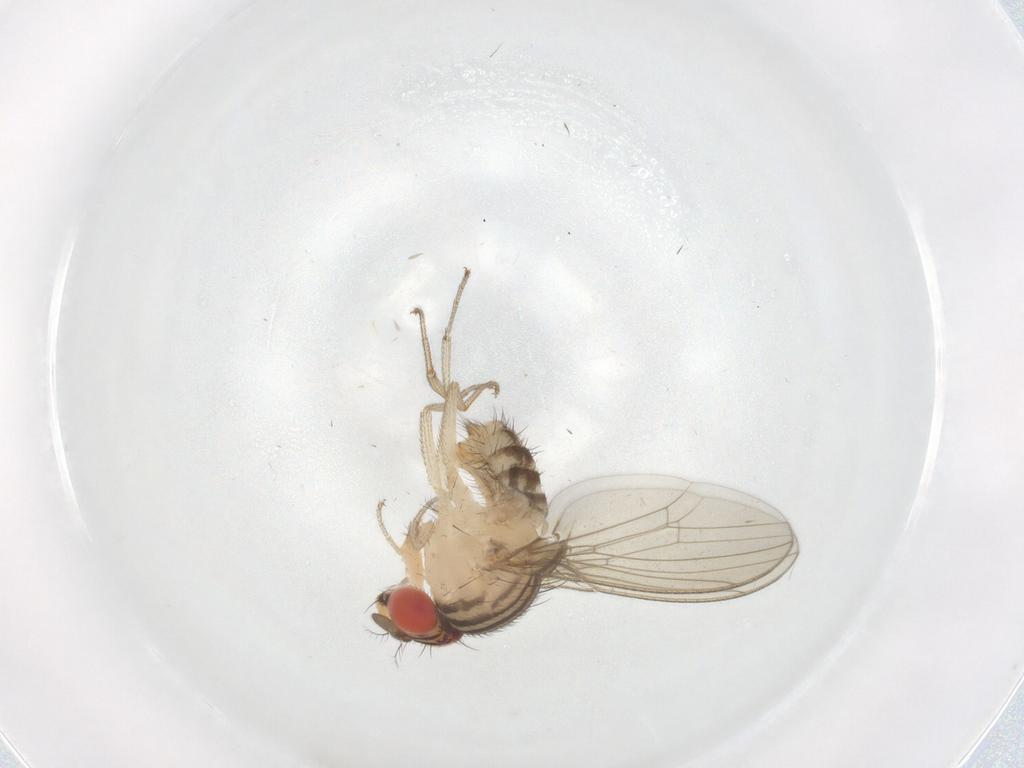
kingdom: Animalia
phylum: Arthropoda
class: Insecta
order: Diptera
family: Drosophilidae
